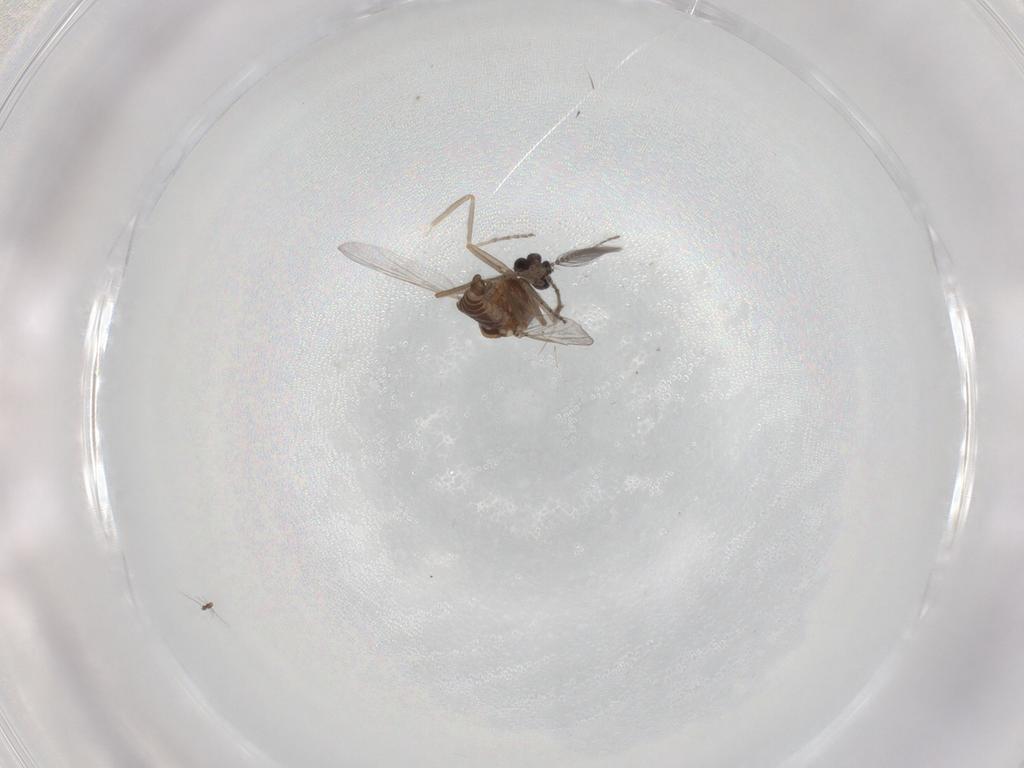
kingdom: Animalia
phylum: Arthropoda
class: Insecta
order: Diptera
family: Ceratopogonidae
